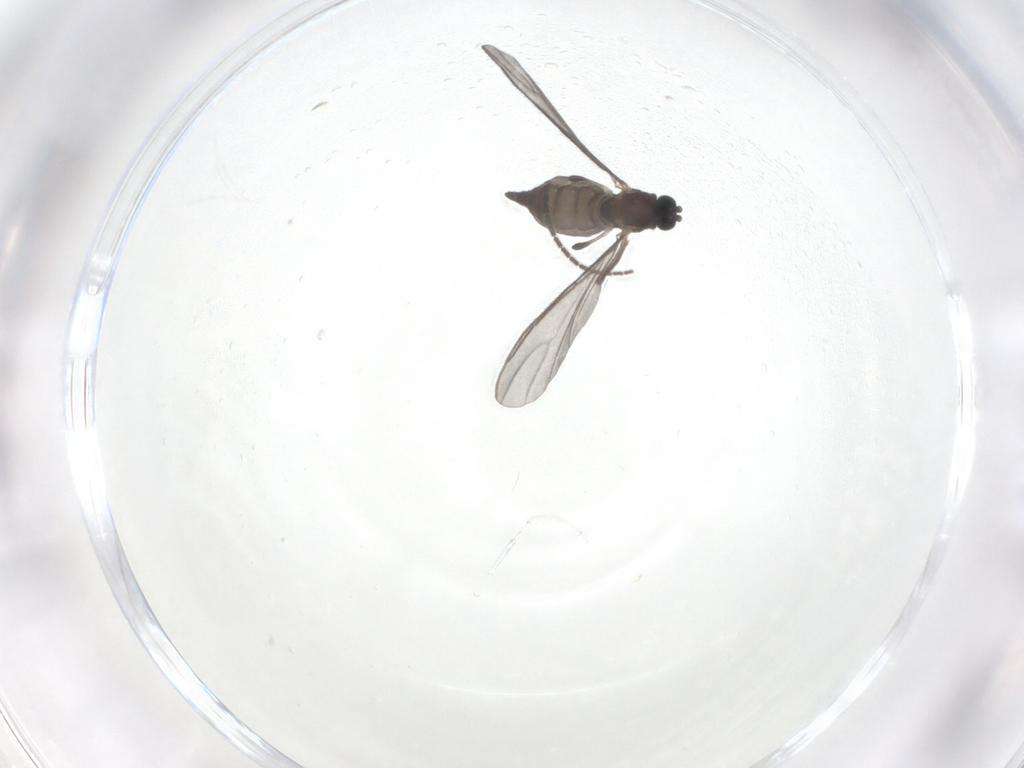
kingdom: Animalia
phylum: Arthropoda
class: Insecta
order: Diptera
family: Sciaridae
